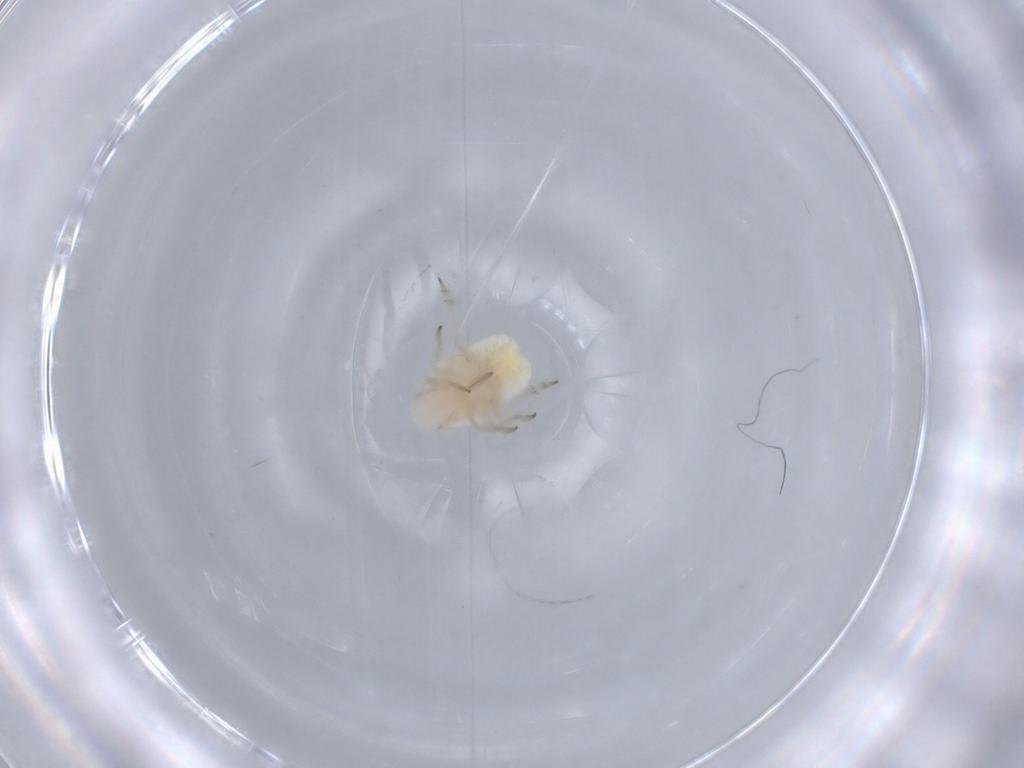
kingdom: Animalia
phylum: Arthropoda
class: Insecta
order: Hemiptera
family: Flatidae
